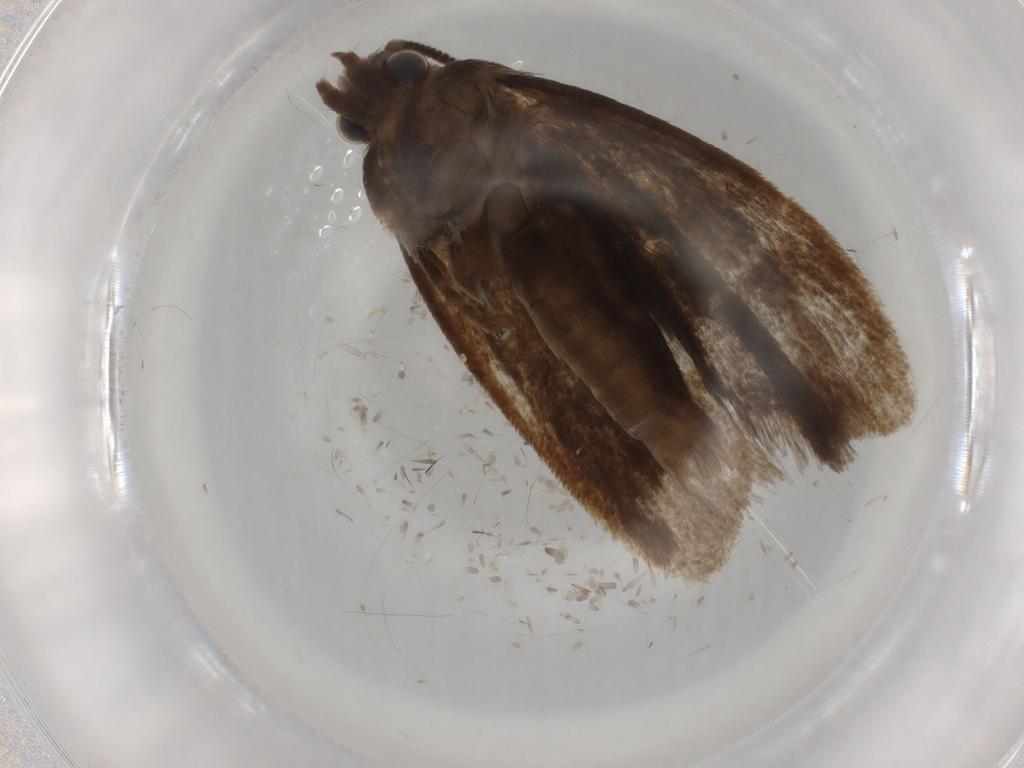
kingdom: Animalia
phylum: Arthropoda
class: Insecta
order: Lepidoptera
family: Tineidae
